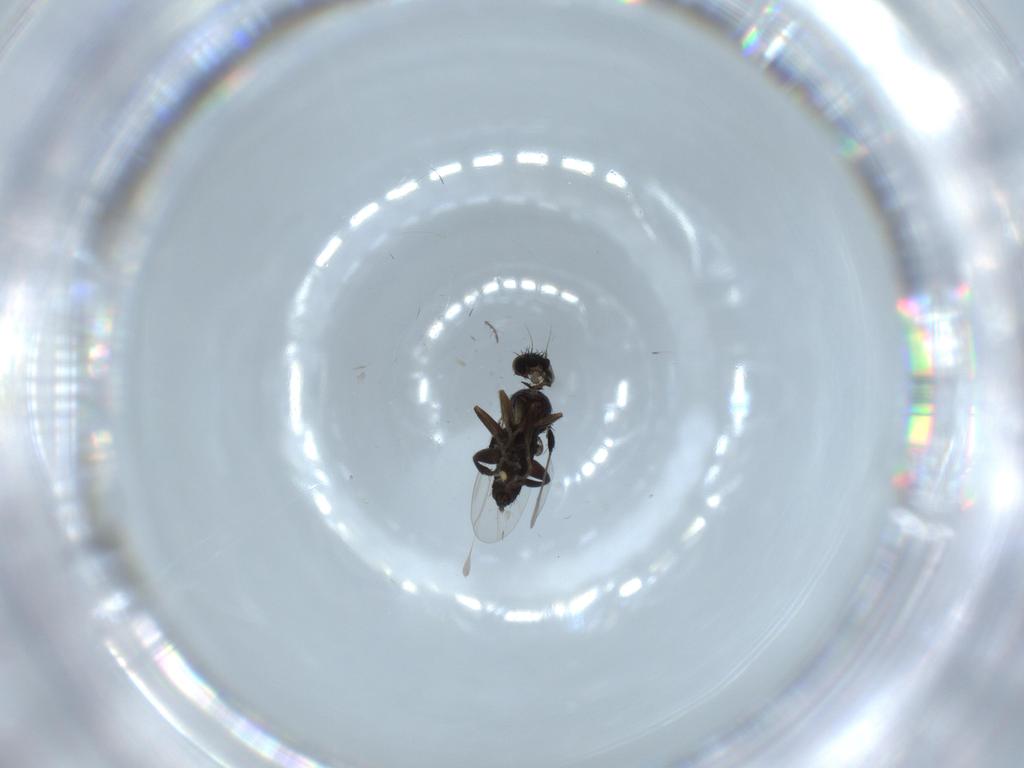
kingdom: Animalia
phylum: Arthropoda
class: Insecta
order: Diptera
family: Phoridae
